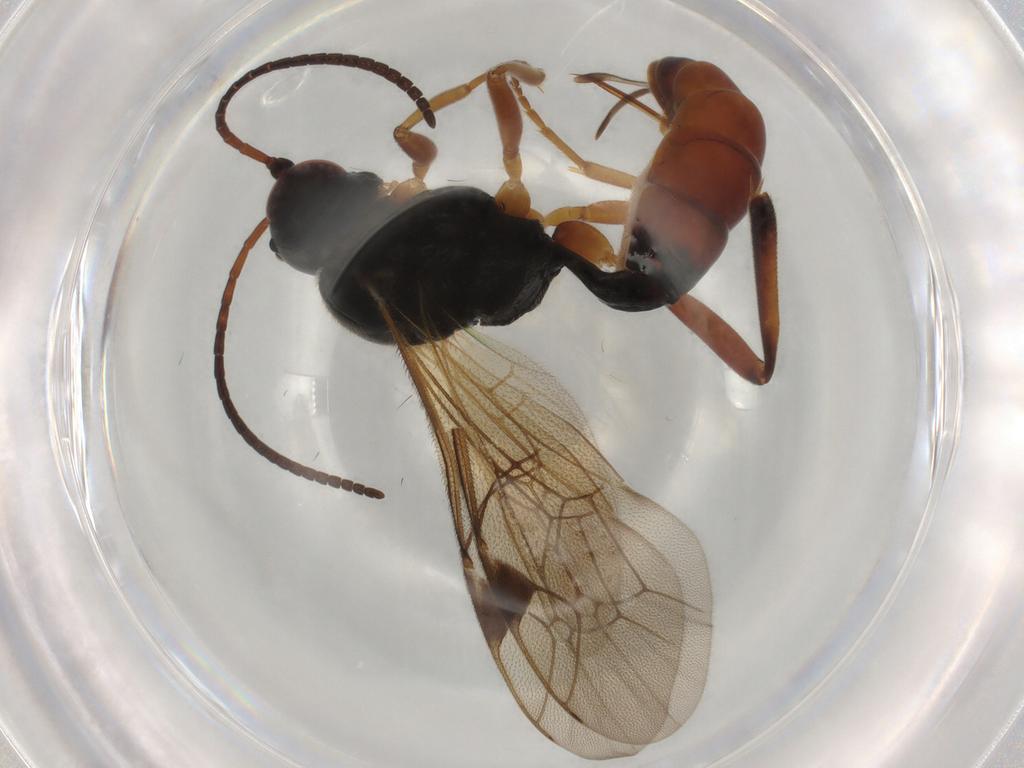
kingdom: Animalia
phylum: Arthropoda
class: Insecta
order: Hymenoptera
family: Ichneumonidae
